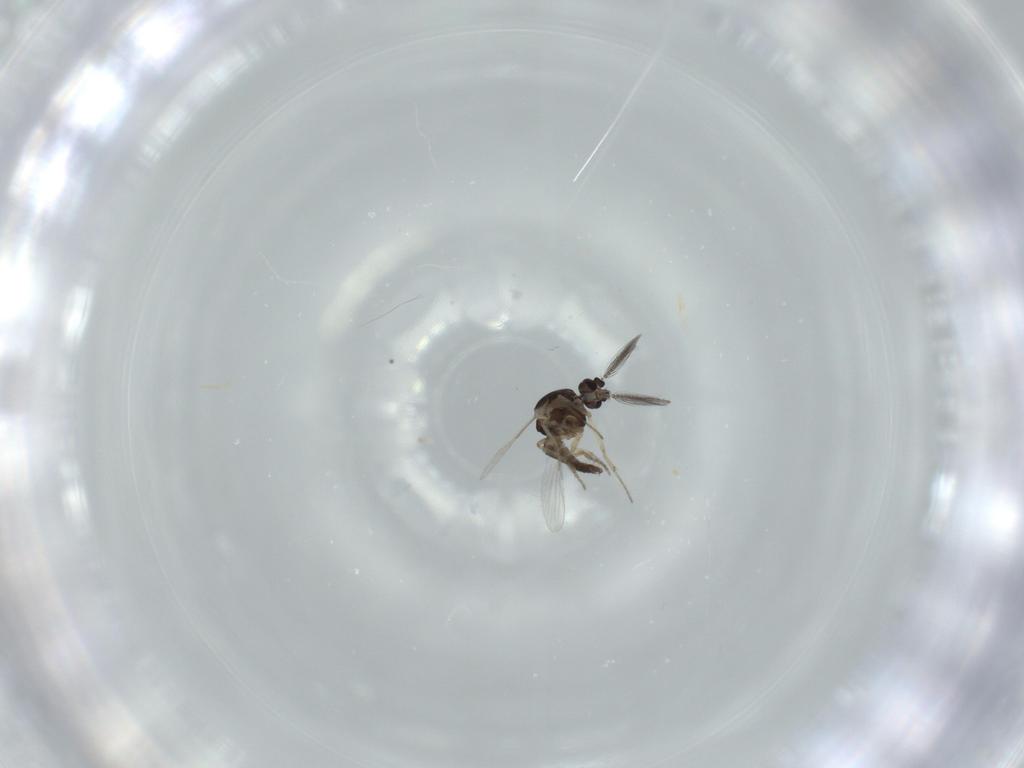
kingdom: Animalia
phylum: Arthropoda
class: Insecta
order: Diptera
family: Ceratopogonidae
